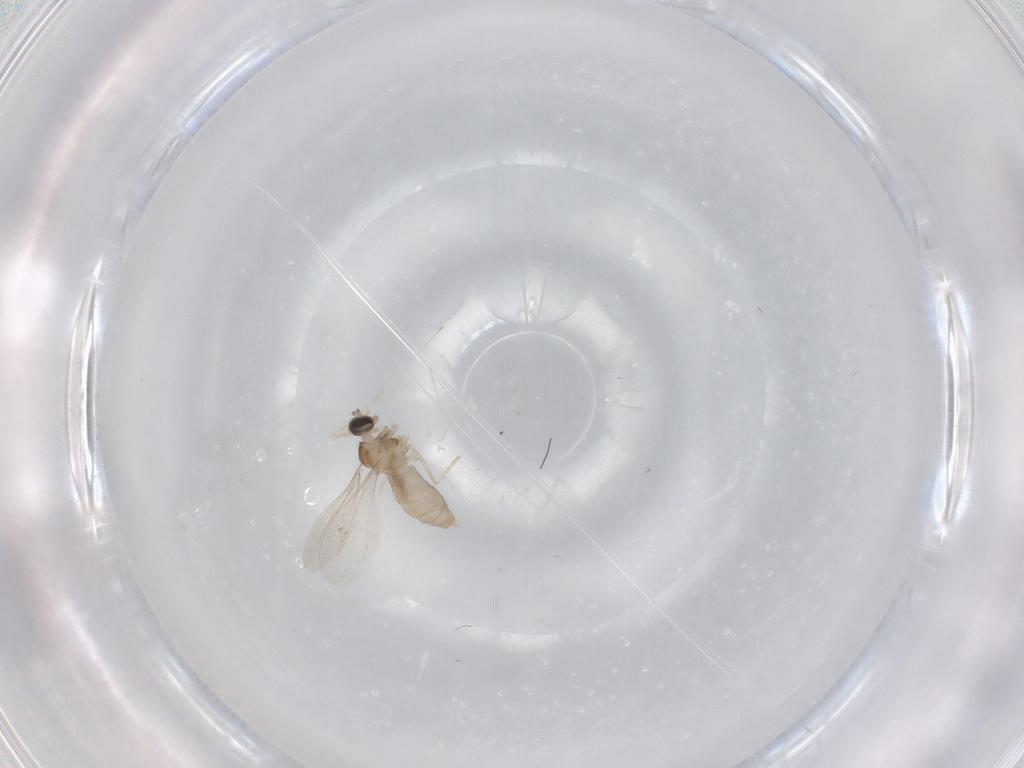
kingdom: Animalia
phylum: Arthropoda
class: Insecta
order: Diptera
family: Cecidomyiidae
